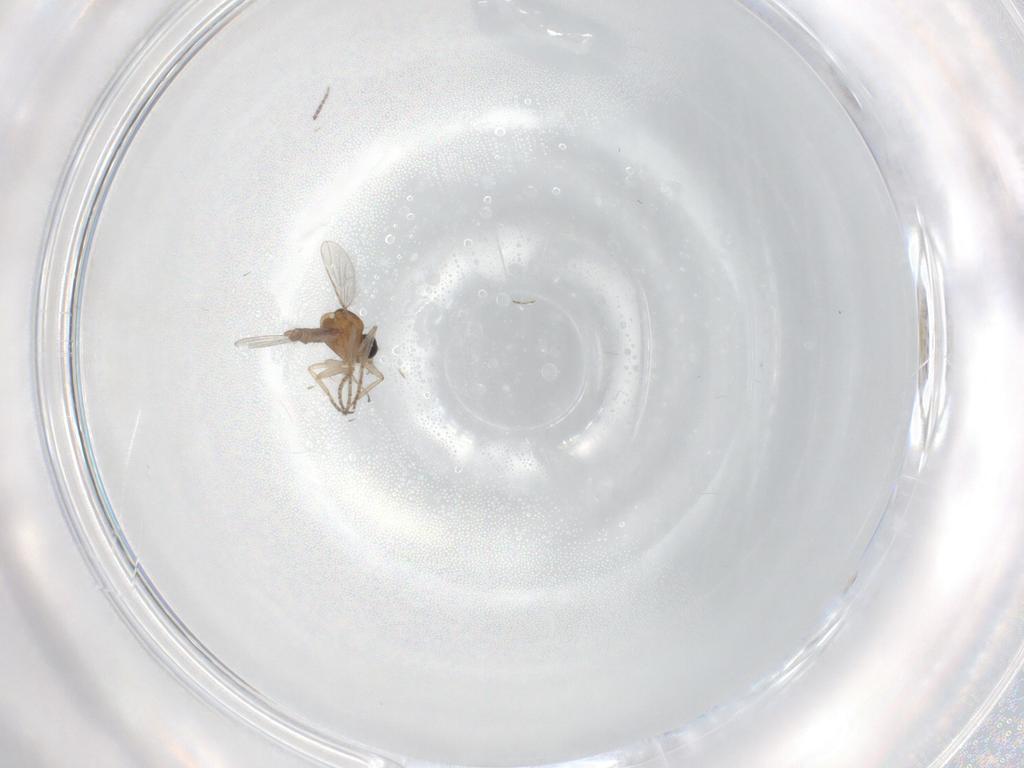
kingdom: Animalia
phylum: Arthropoda
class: Insecta
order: Diptera
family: Sciaridae
